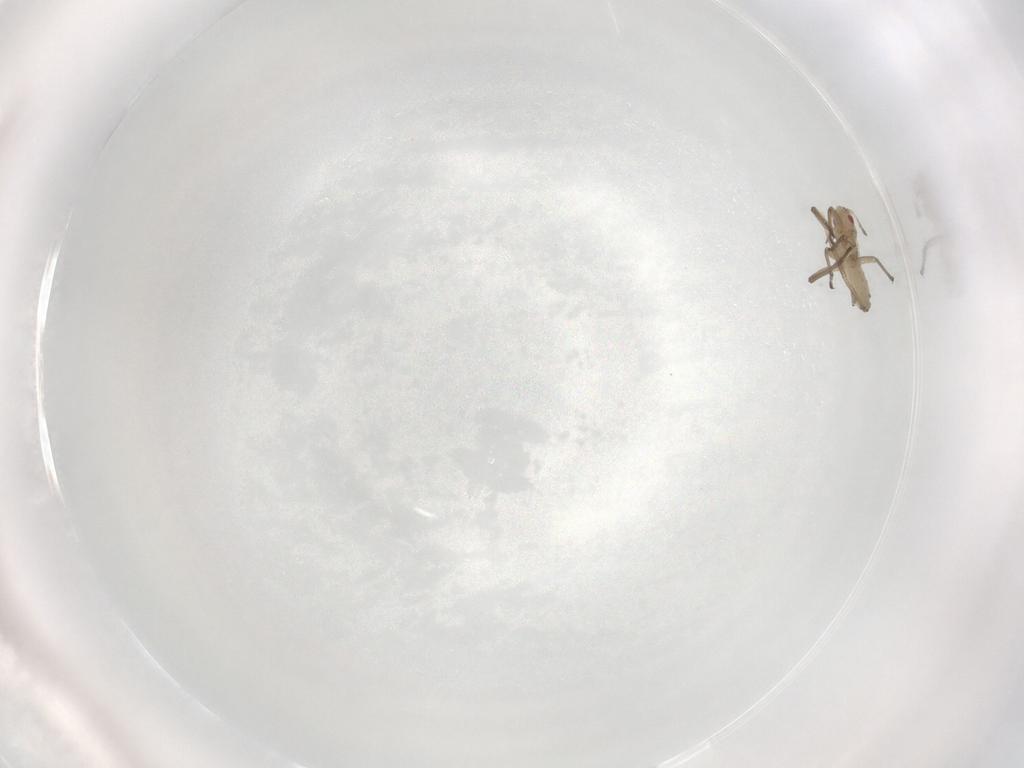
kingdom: Animalia
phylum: Arthropoda
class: Insecta
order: Diptera
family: Chironomidae
